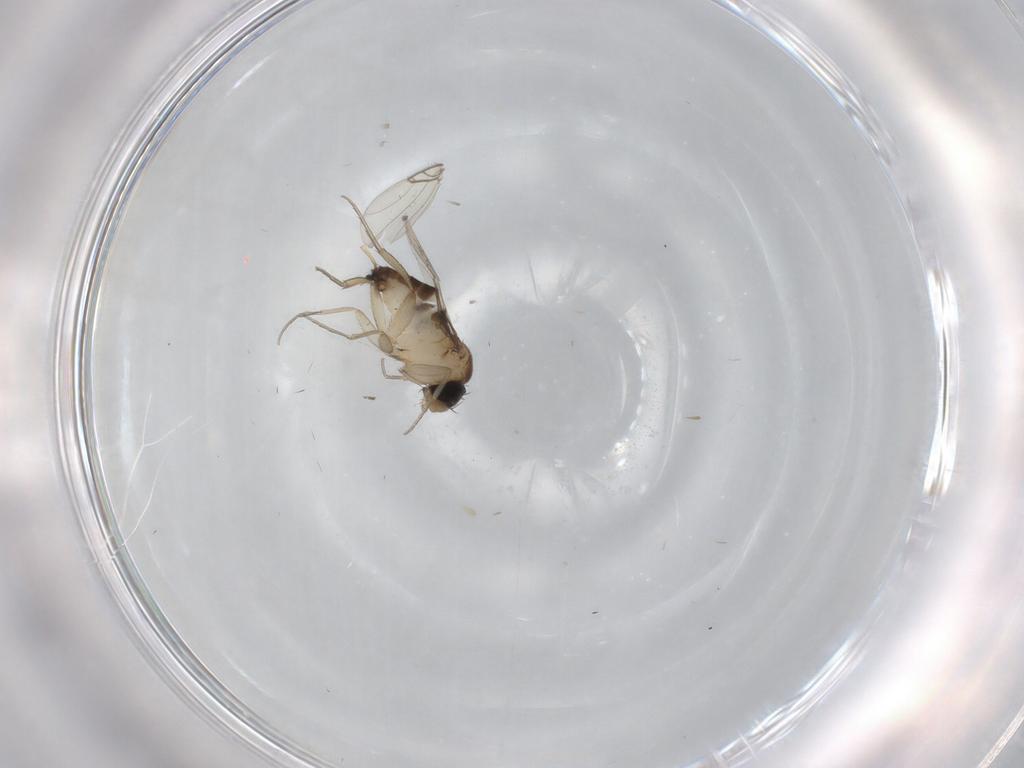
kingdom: Animalia
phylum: Arthropoda
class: Insecta
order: Diptera
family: Phoridae
